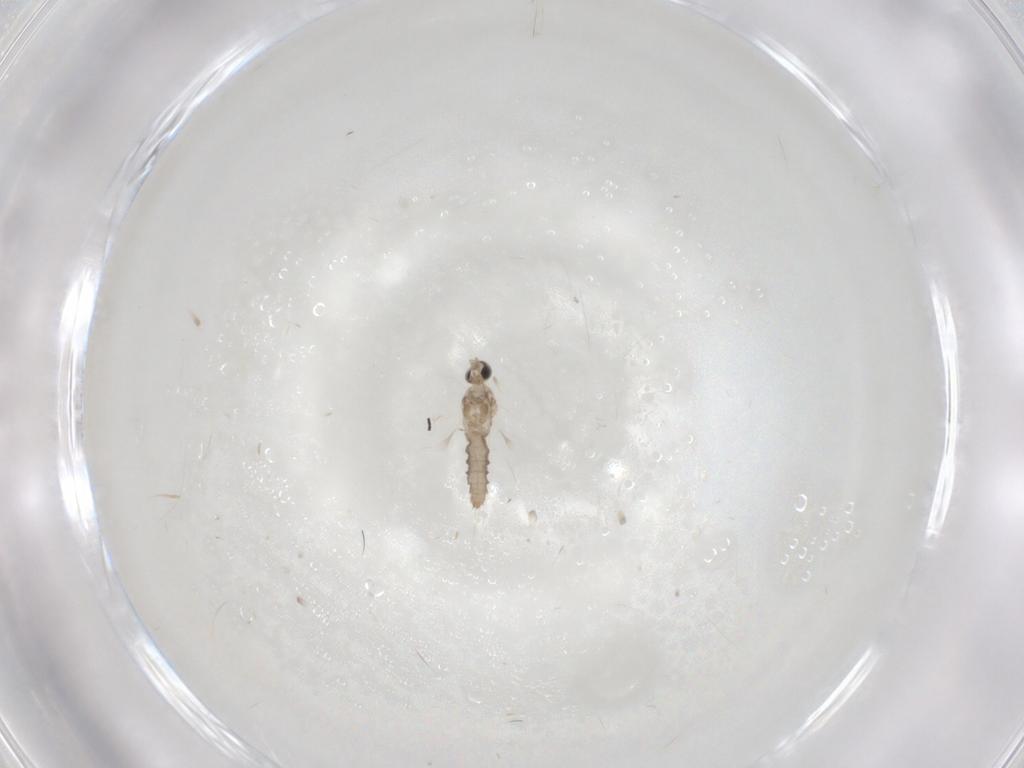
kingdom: Animalia
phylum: Arthropoda
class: Insecta
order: Diptera
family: Cecidomyiidae
